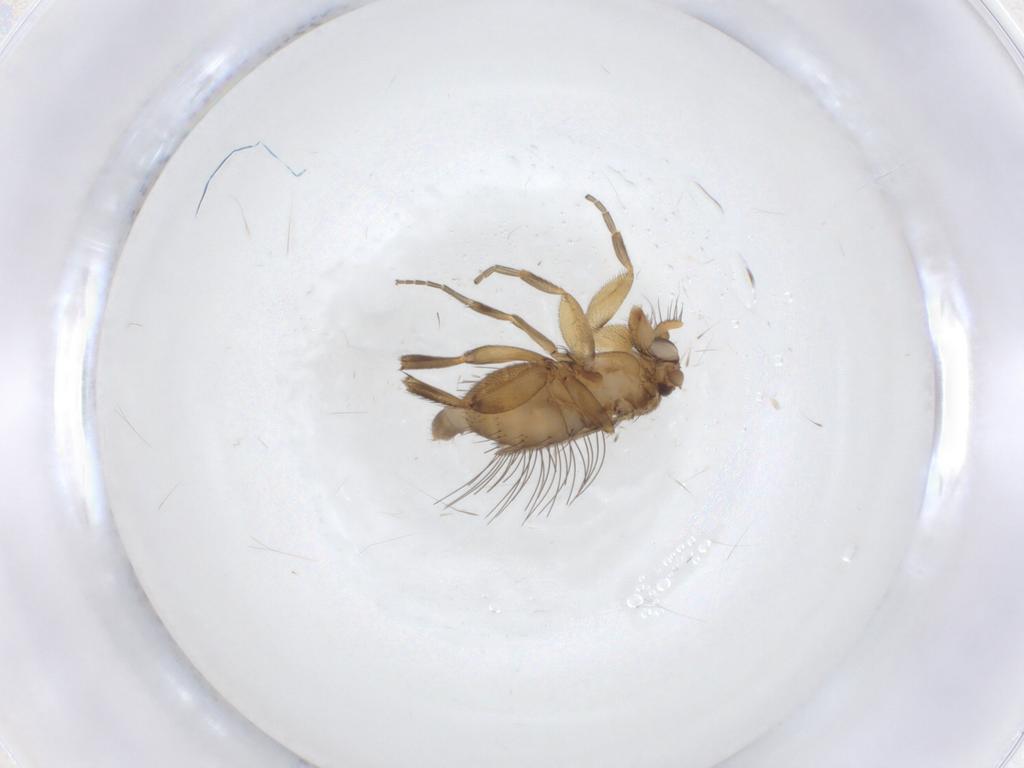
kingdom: Animalia
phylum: Arthropoda
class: Insecta
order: Diptera
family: Phoridae
